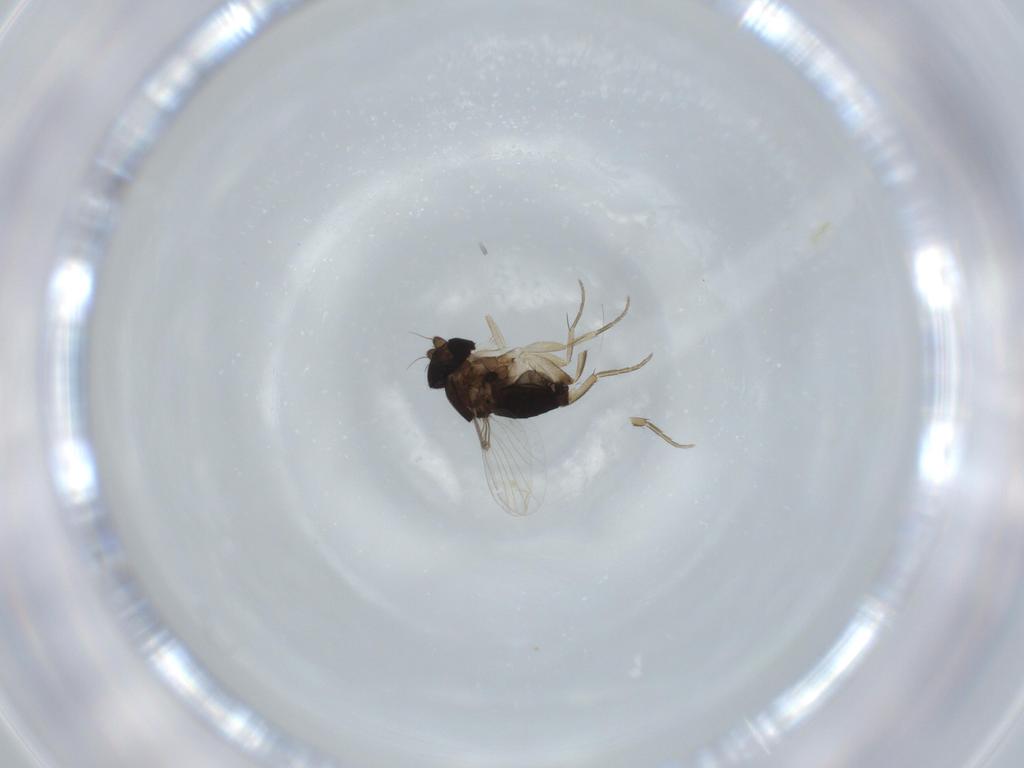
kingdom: Animalia
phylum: Arthropoda
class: Insecta
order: Diptera
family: Phoridae
